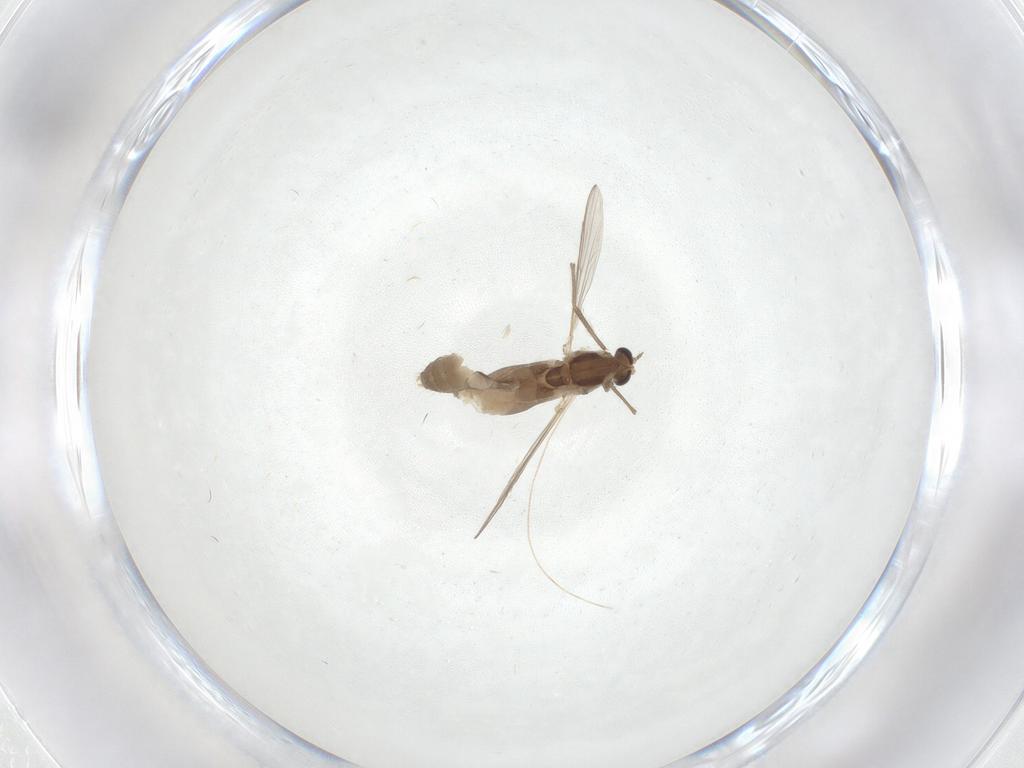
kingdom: Animalia
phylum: Arthropoda
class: Insecta
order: Diptera
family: Chironomidae
